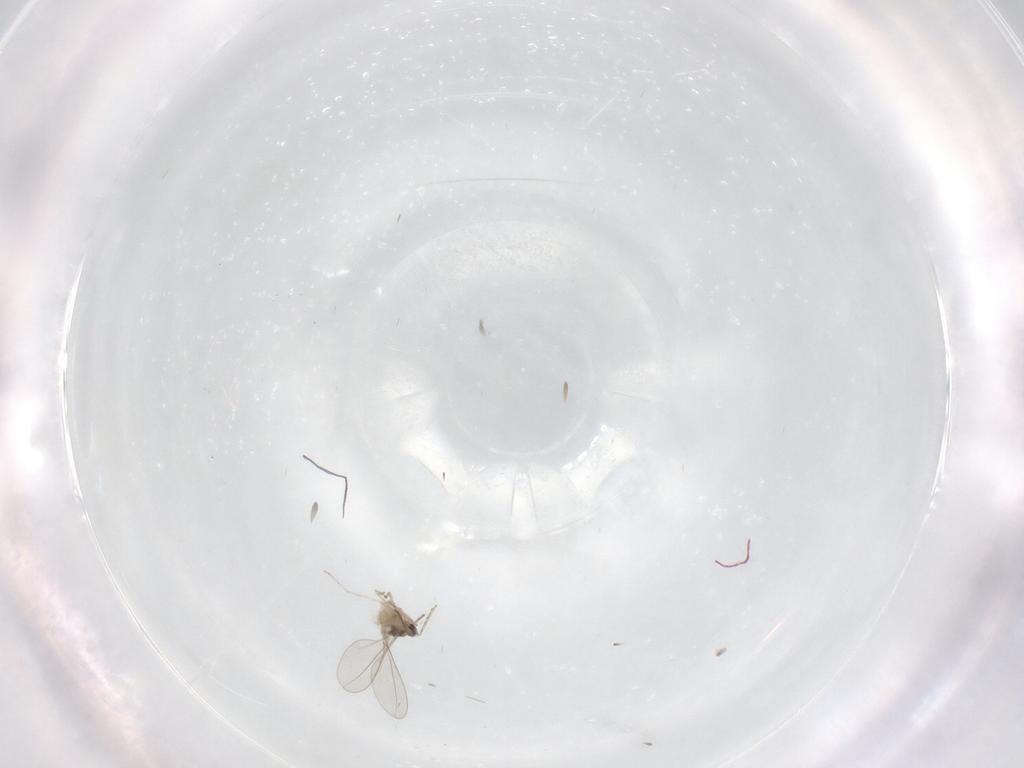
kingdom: Animalia
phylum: Arthropoda
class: Insecta
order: Diptera
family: Cecidomyiidae
